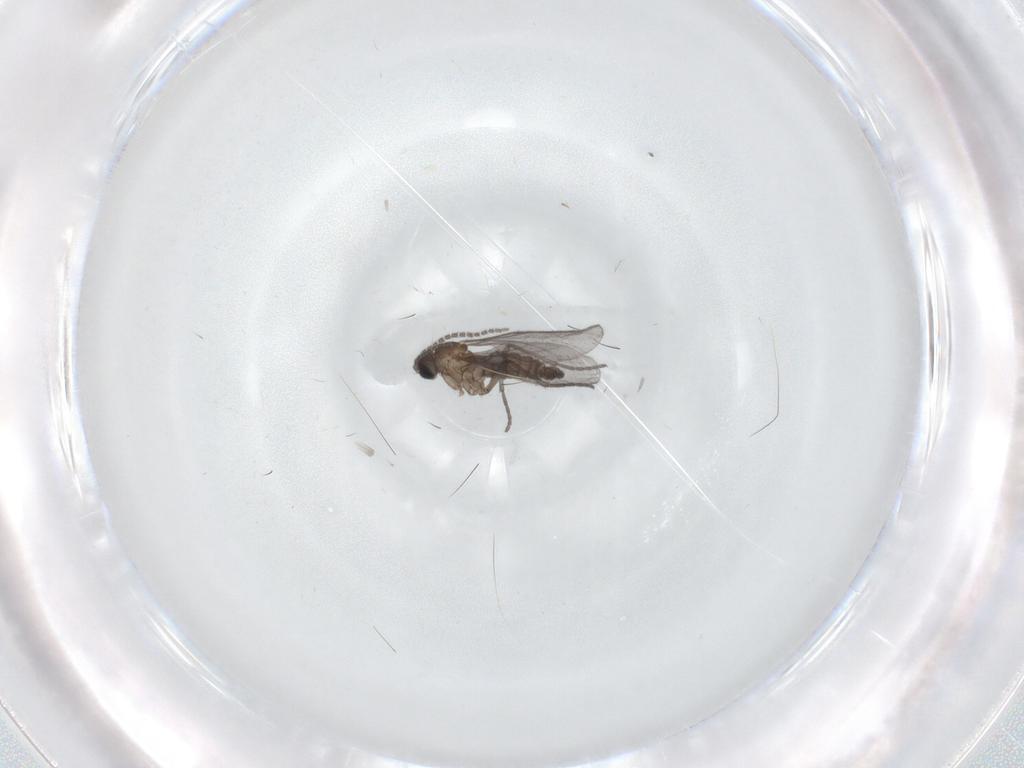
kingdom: Animalia
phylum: Arthropoda
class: Insecta
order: Diptera
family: Sciaridae
